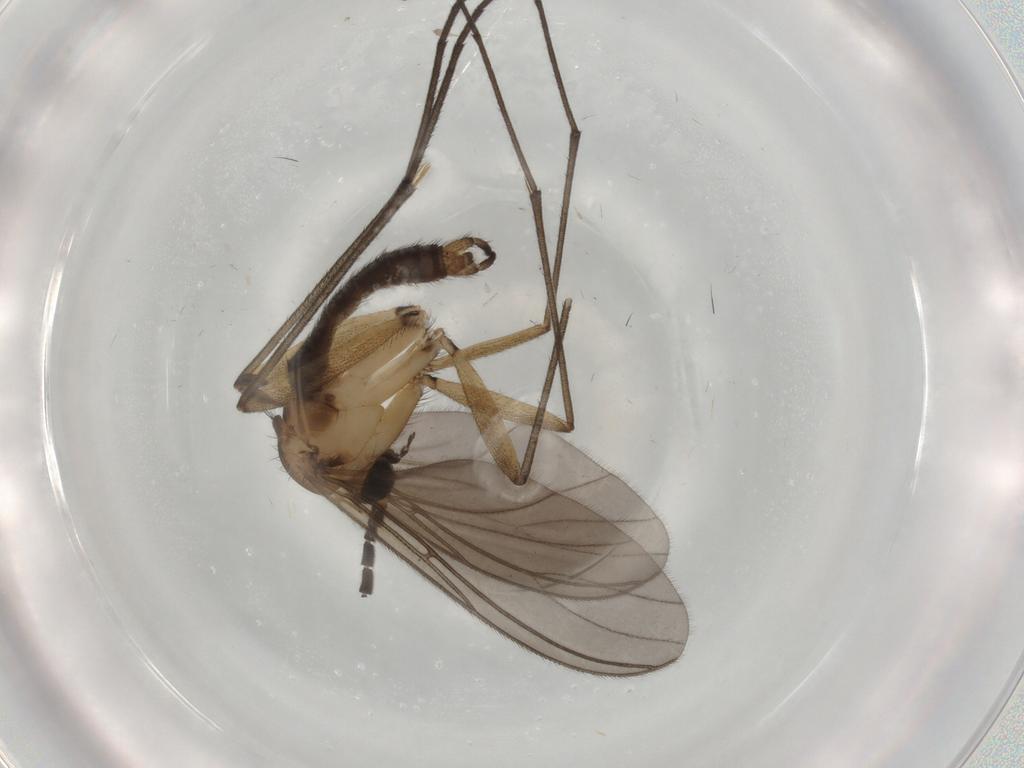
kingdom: Animalia
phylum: Arthropoda
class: Insecta
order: Diptera
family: Sciaridae
